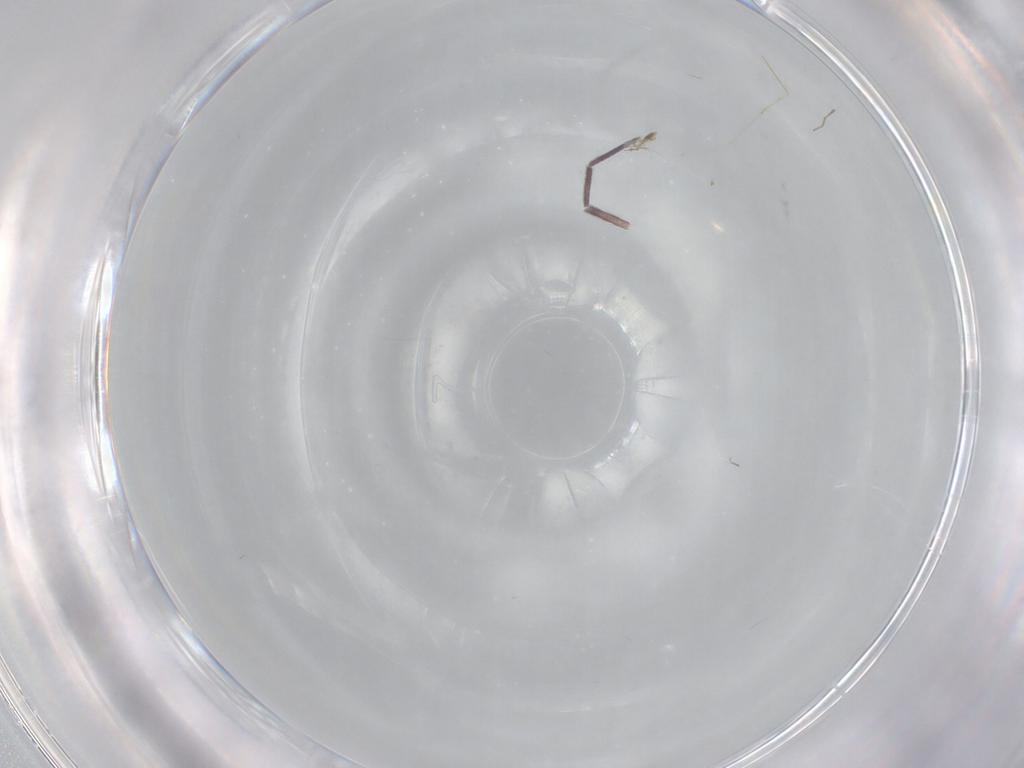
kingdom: Animalia
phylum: Arthropoda
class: Insecta
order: Diptera
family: Cecidomyiidae
